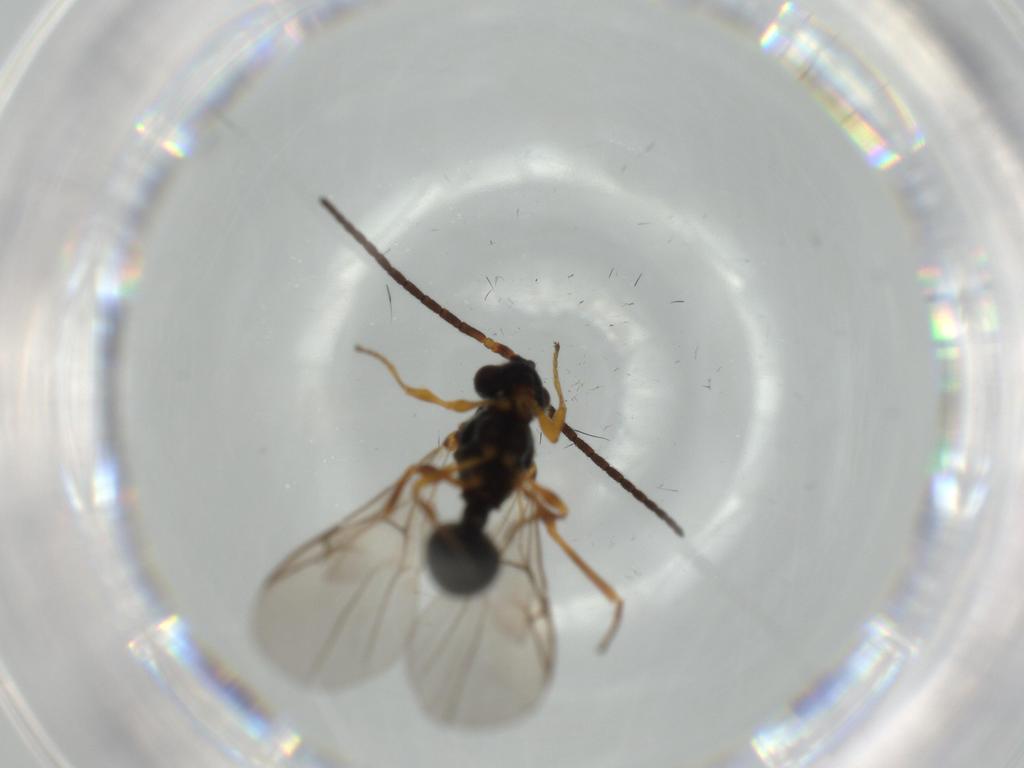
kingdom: Animalia
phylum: Arthropoda
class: Insecta
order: Hymenoptera
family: Diapriidae
